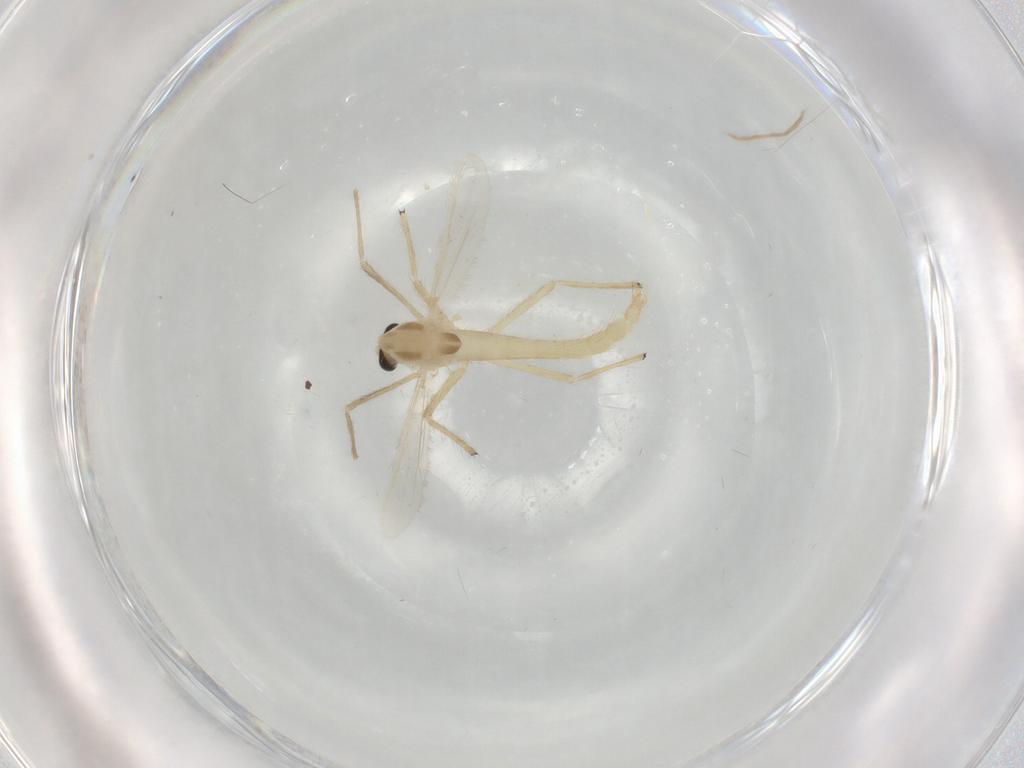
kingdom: Animalia
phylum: Arthropoda
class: Insecta
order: Diptera
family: Chironomidae
